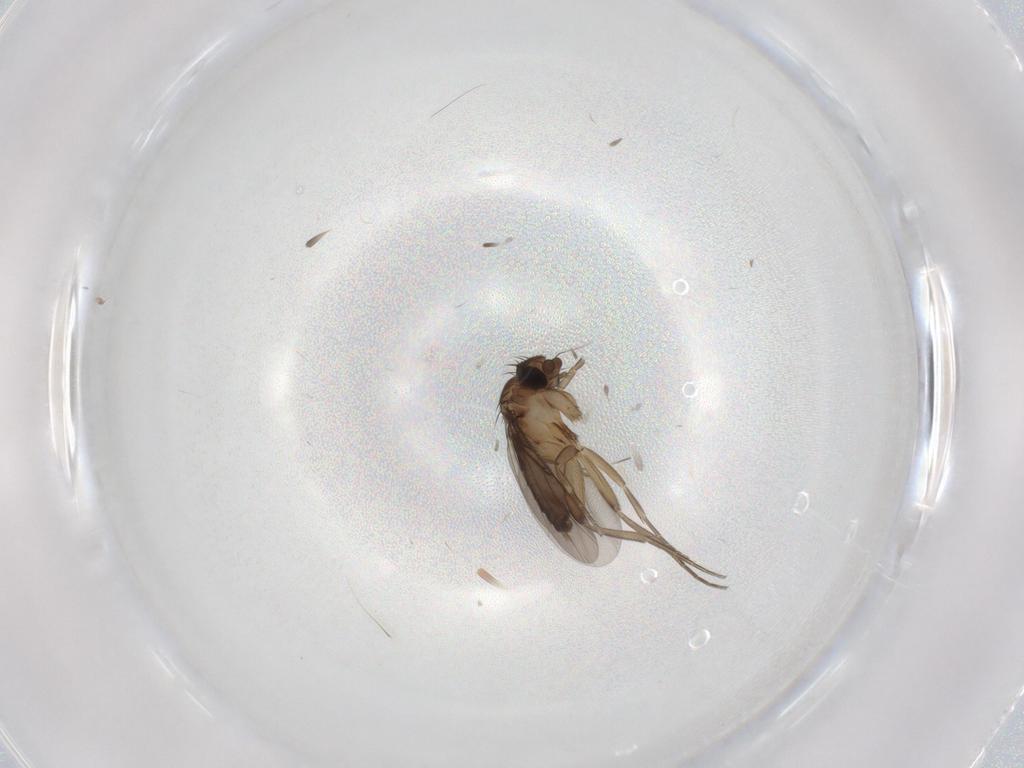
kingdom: Animalia
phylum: Arthropoda
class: Insecta
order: Diptera
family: Phoridae
